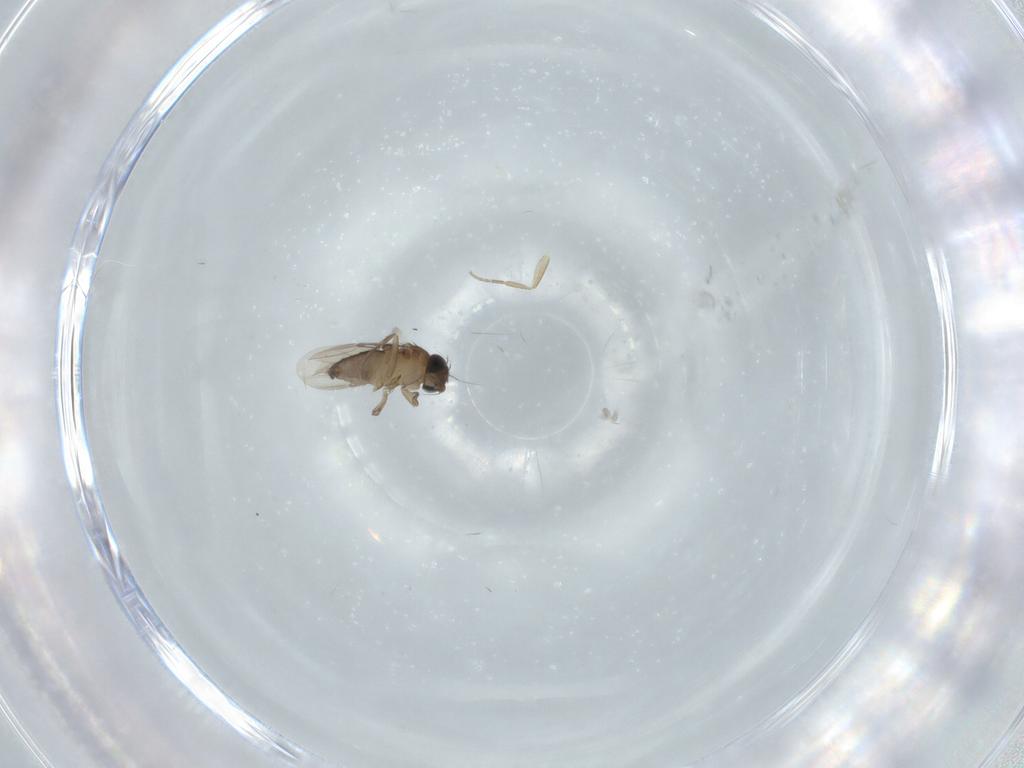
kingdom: Animalia
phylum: Arthropoda
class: Insecta
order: Diptera
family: Phoridae
